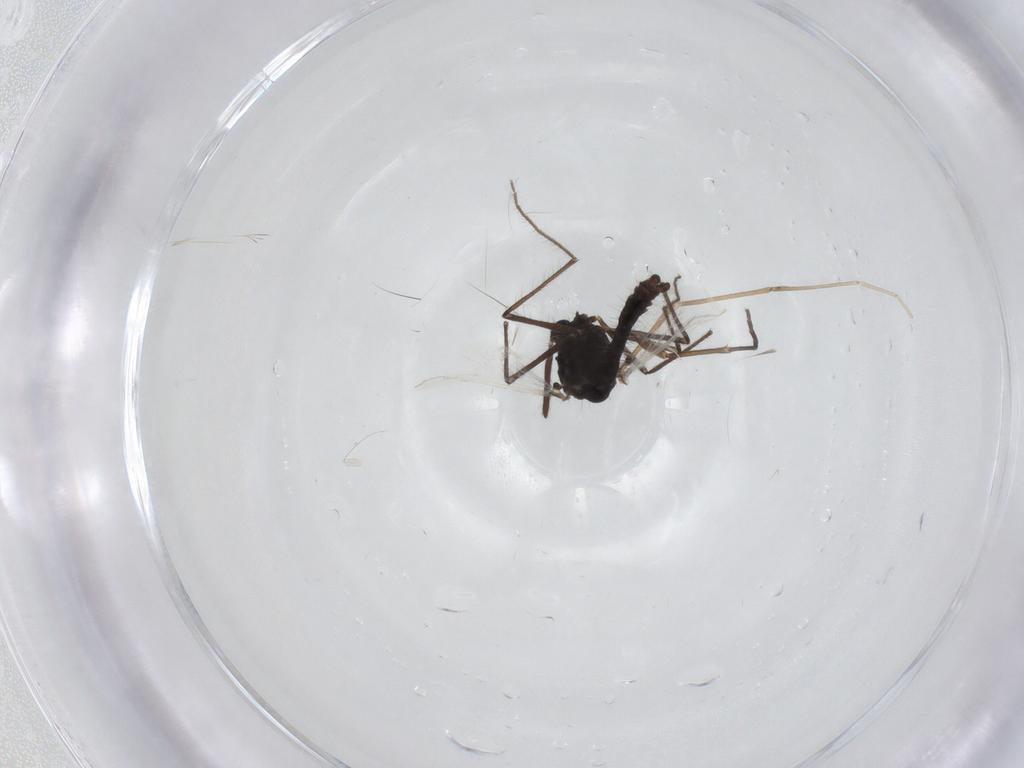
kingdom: Animalia
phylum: Arthropoda
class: Insecta
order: Diptera
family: Sciaridae
